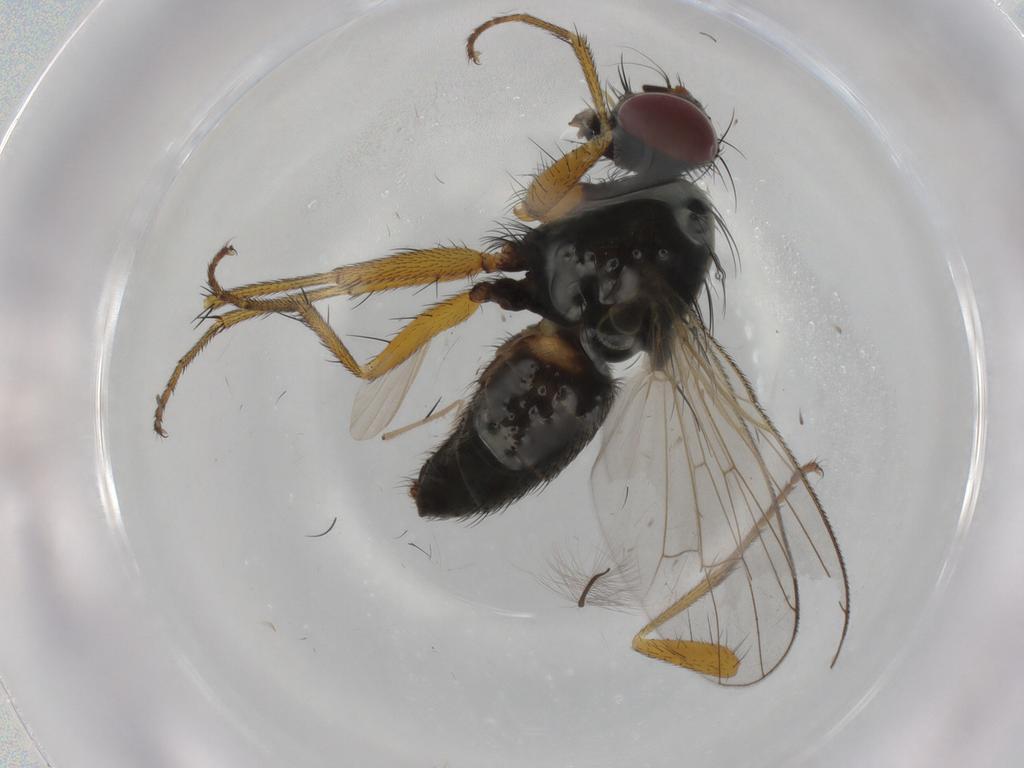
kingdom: Animalia
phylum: Arthropoda
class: Insecta
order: Diptera
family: Muscidae
